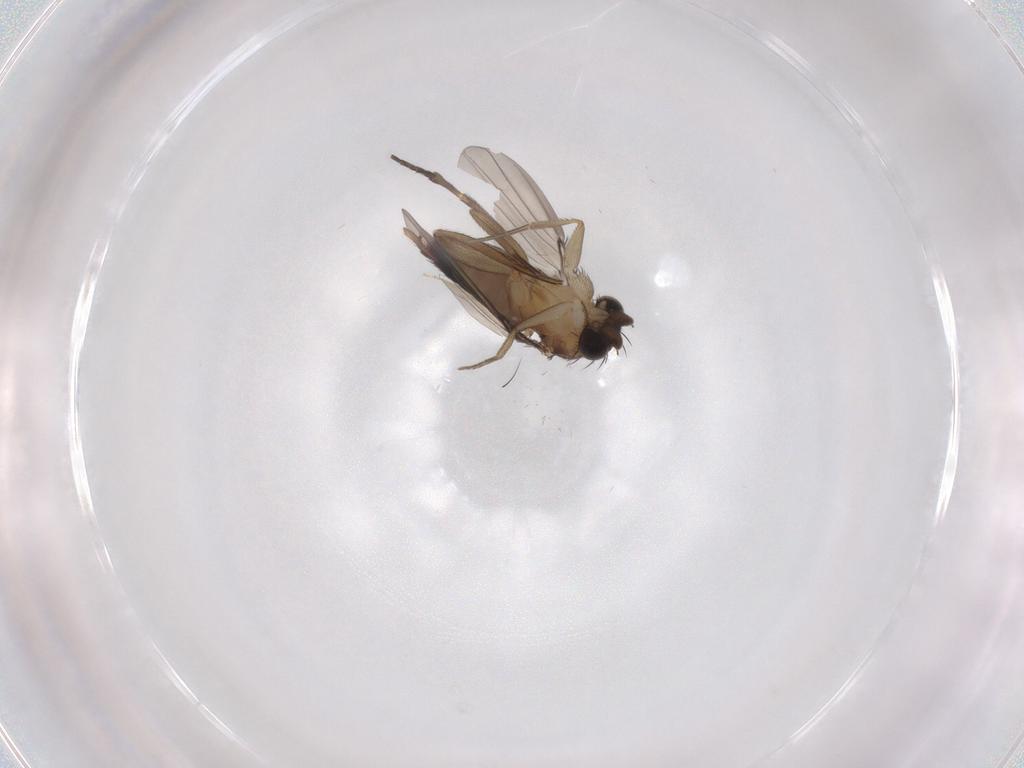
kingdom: Animalia
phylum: Arthropoda
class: Insecta
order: Diptera
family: Phoridae
